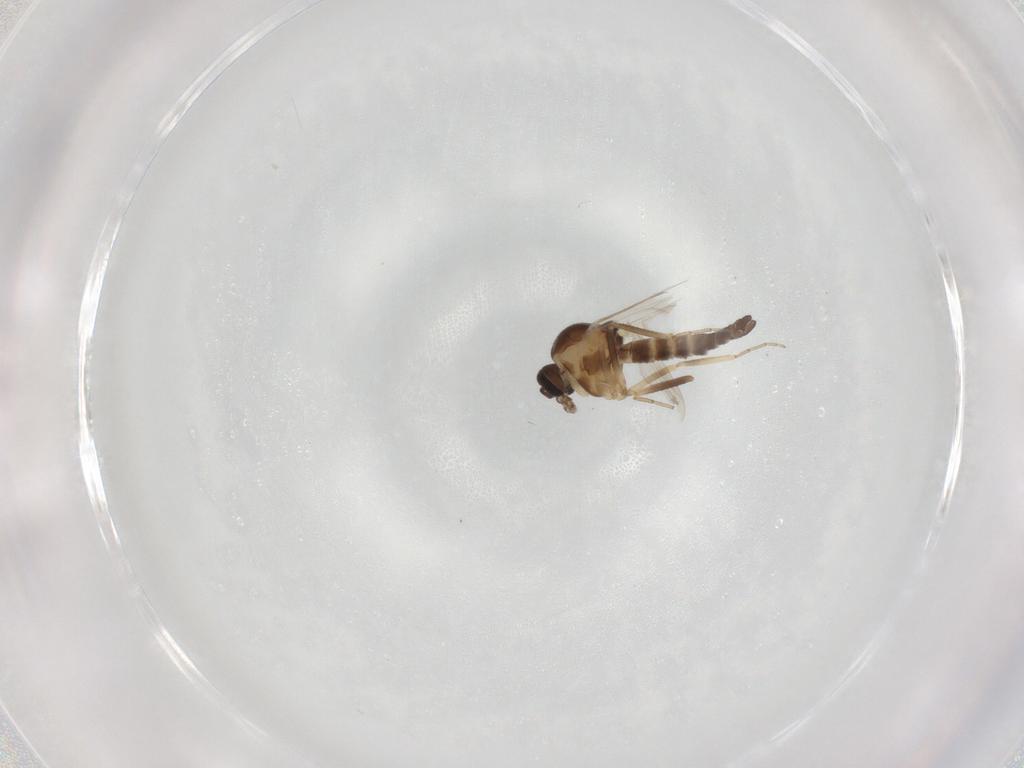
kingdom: Animalia
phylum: Arthropoda
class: Insecta
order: Diptera
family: Ceratopogonidae
